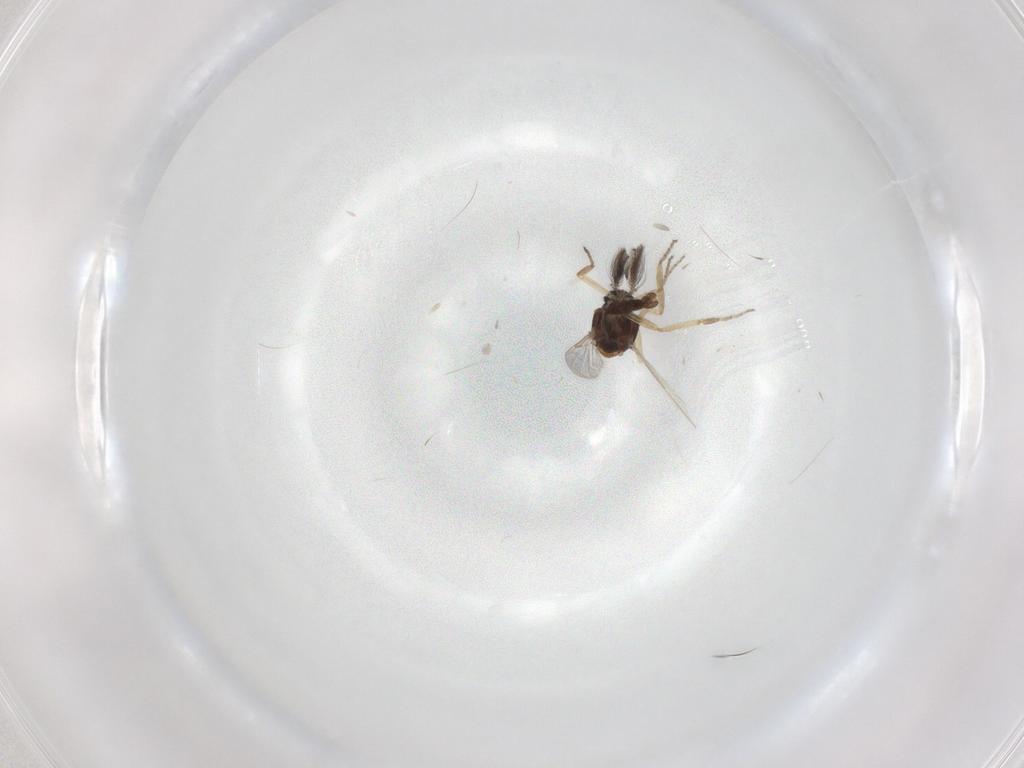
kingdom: Animalia
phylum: Arthropoda
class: Insecta
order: Diptera
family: Ceratopogonidae
